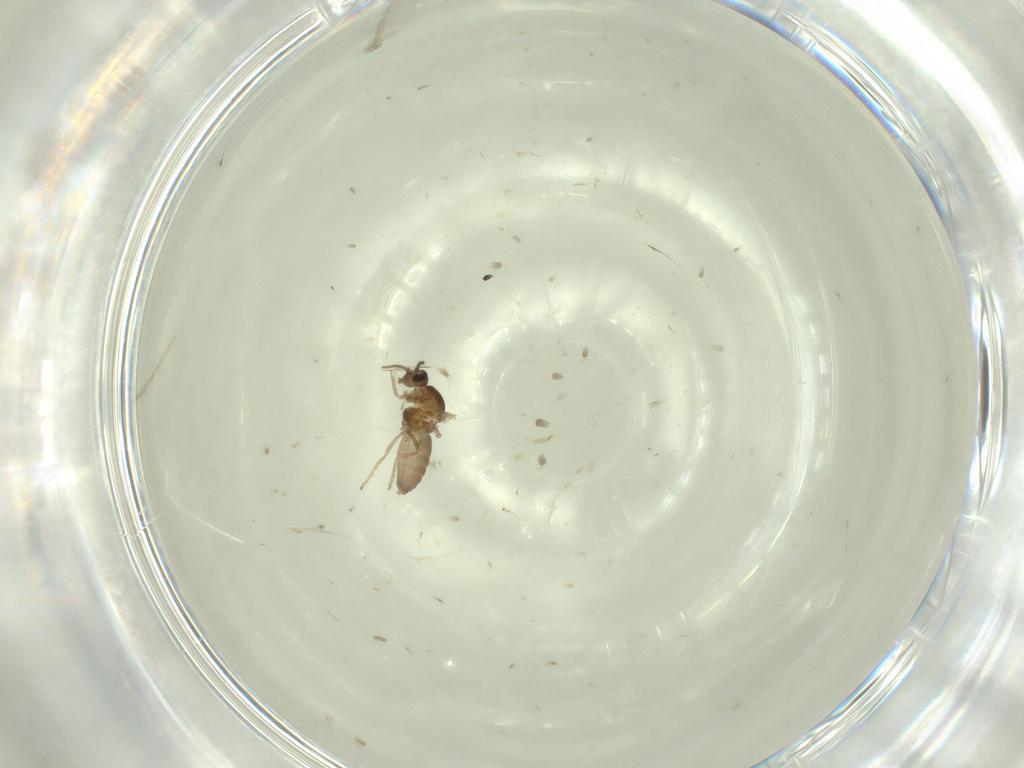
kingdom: Animalia
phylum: Arthropoda
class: Insecta
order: Diptera
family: Ceratopogonidae
